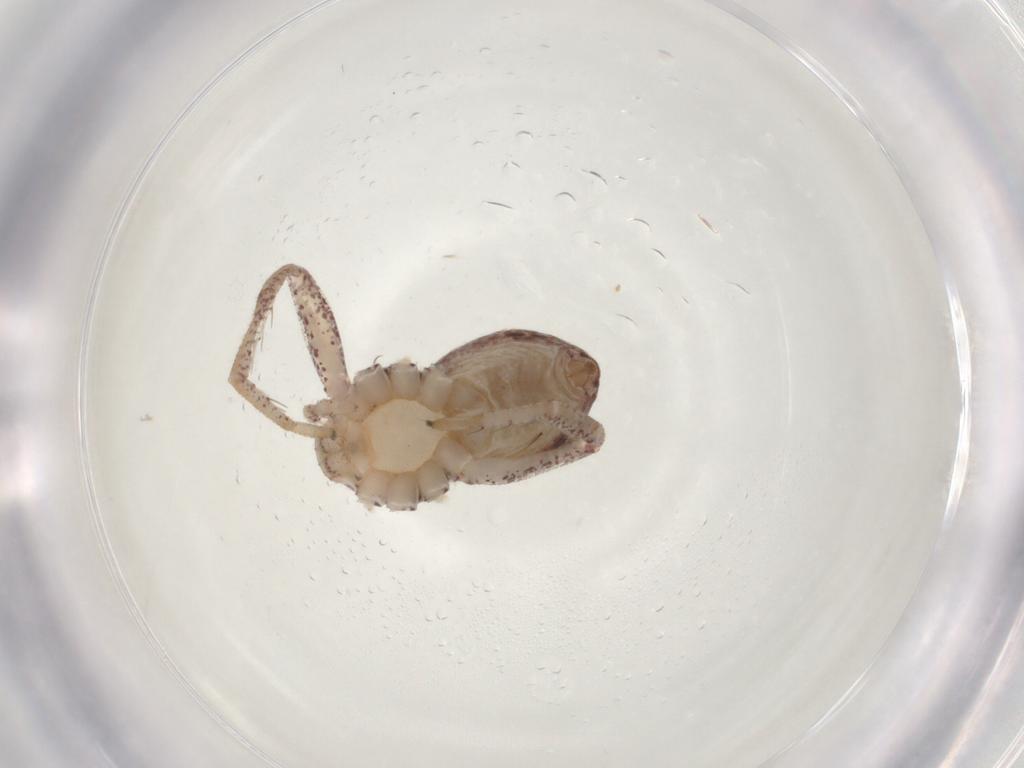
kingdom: Animalia
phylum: Arthropoda
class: Arachnida
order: Araneae
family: Philodromidae
